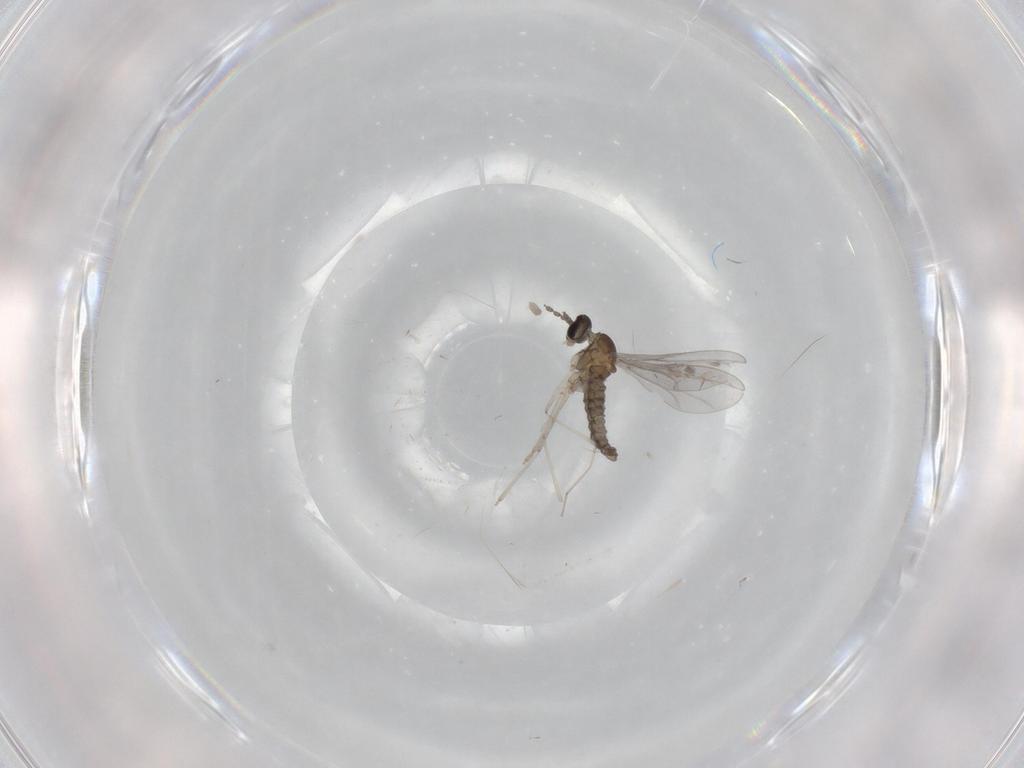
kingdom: Animalia
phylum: Arthropoda
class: Insecta
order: Diptera
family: Cecidomyiidae
